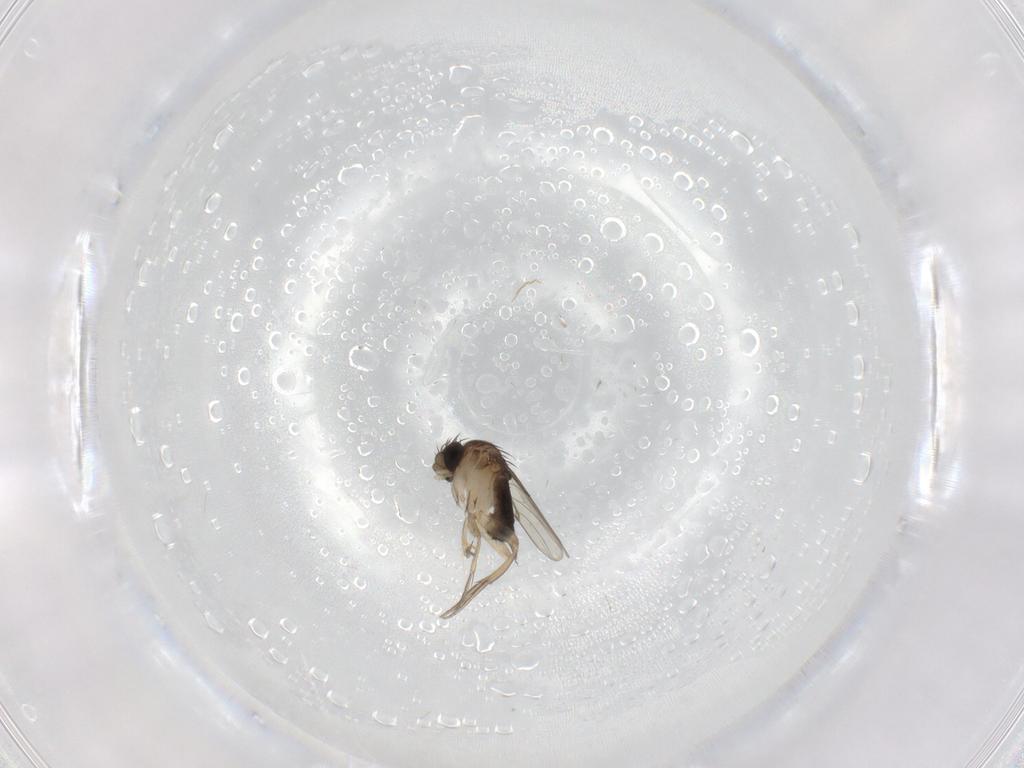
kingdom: Animalia
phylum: Arthropoda
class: Insecta
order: Diptera
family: Phoridae
